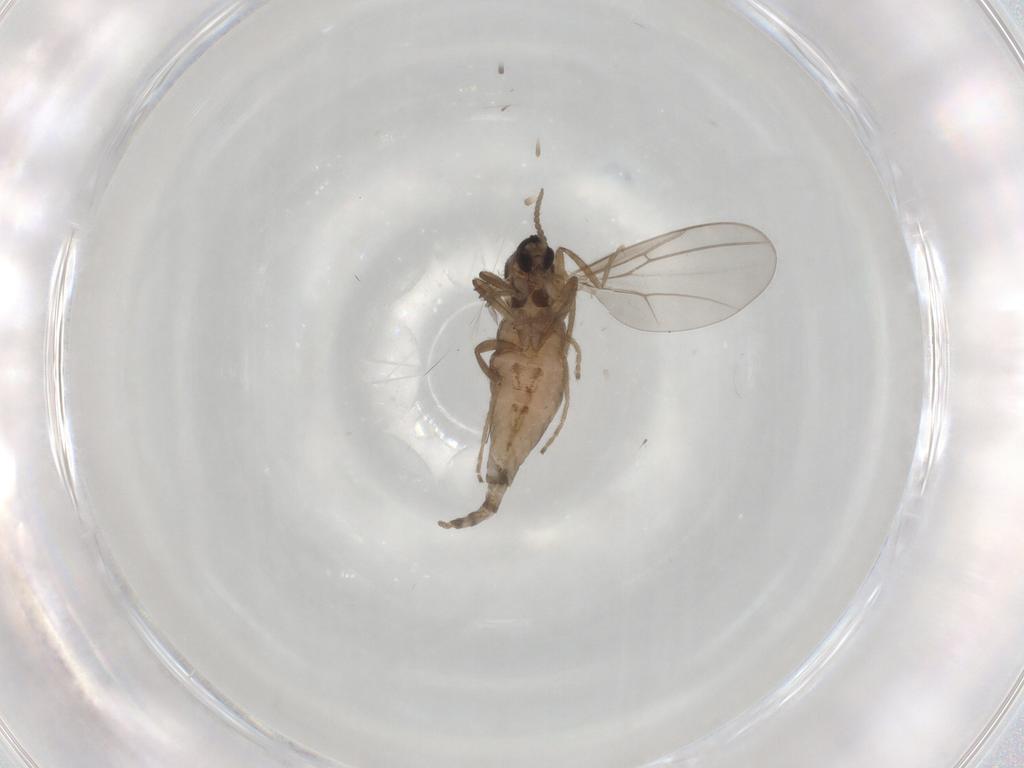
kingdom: Animalia
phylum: Arthropoda
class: Insecta
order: Diptera
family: Cecidomyiidae
